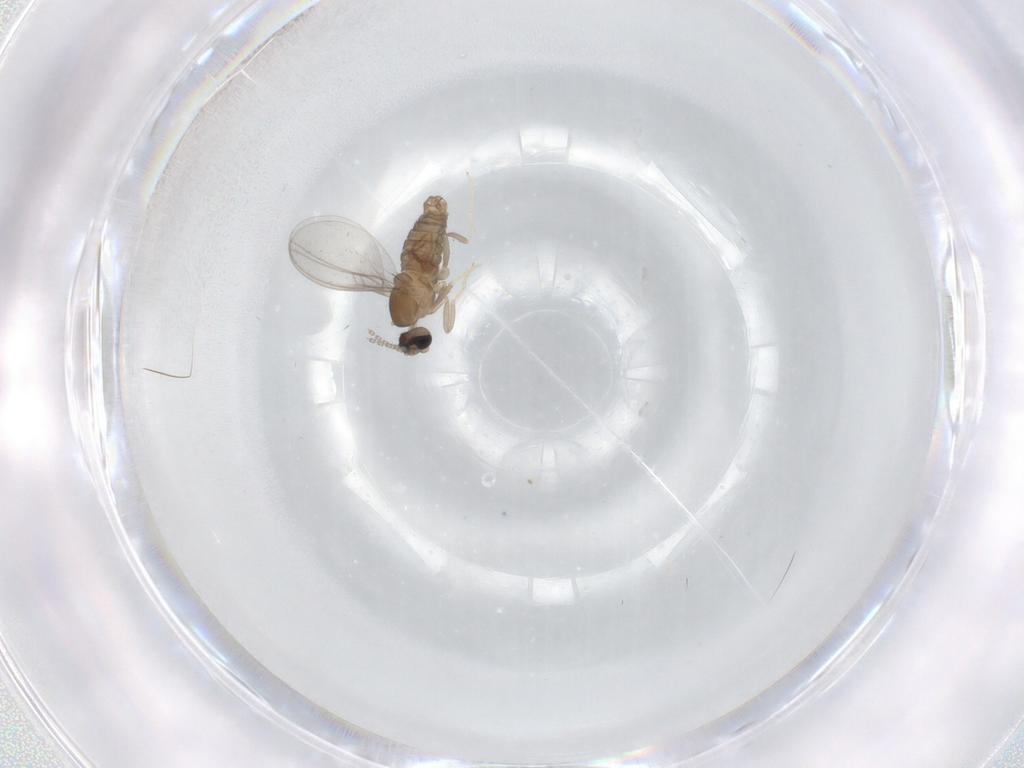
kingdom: Animalia
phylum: Arthropoda
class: Insecta
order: Diptera
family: Cecidomyiidae
